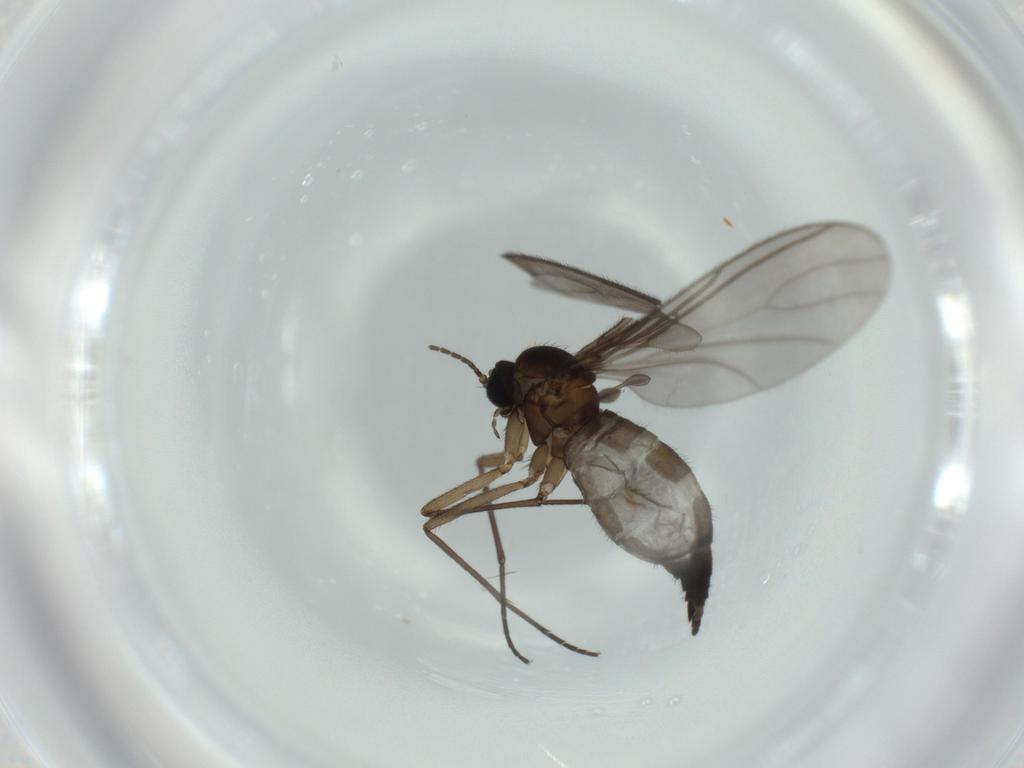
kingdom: Animalia
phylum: Arthropoda
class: Insecta
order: Diptera
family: Sciaridae
